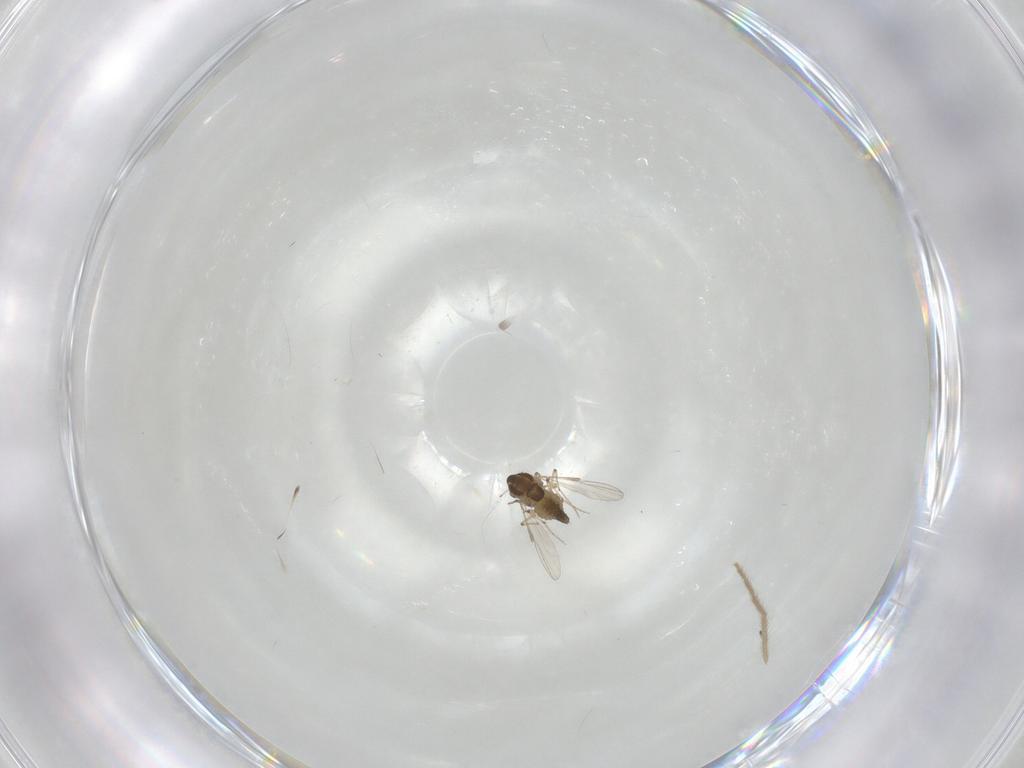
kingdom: Animalia
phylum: Arthropoda
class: Insecta
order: Diptera
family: Chironomidae
